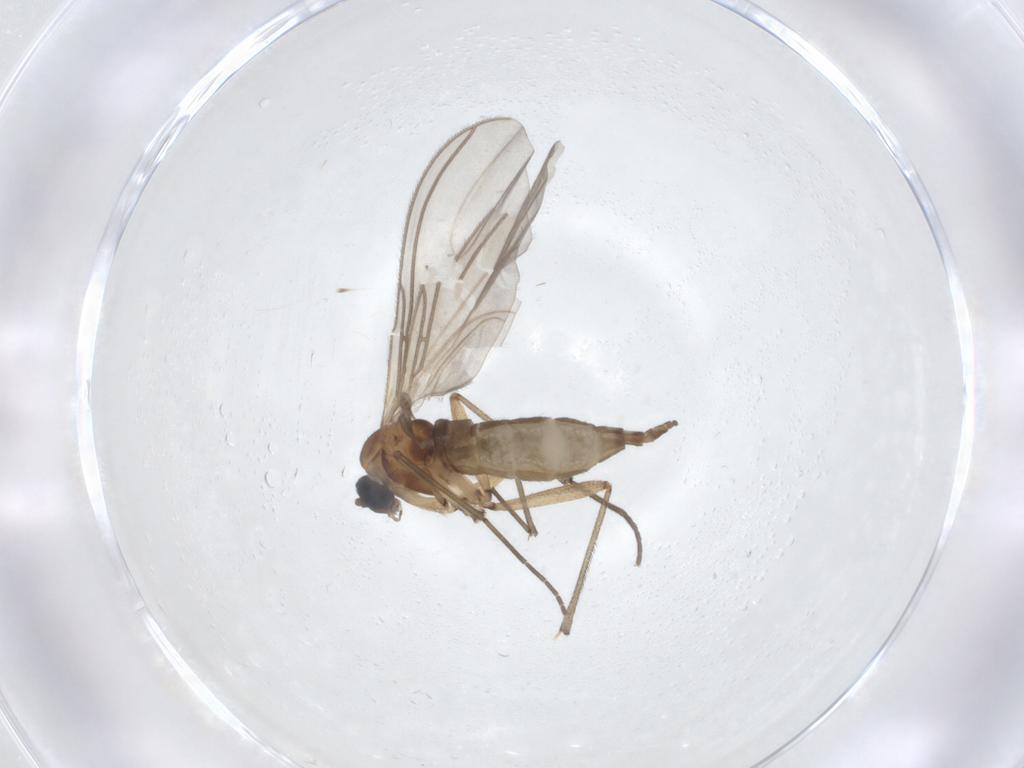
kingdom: Animalia
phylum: Arthropoda
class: Insecta
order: Diptera
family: Sciaridae
